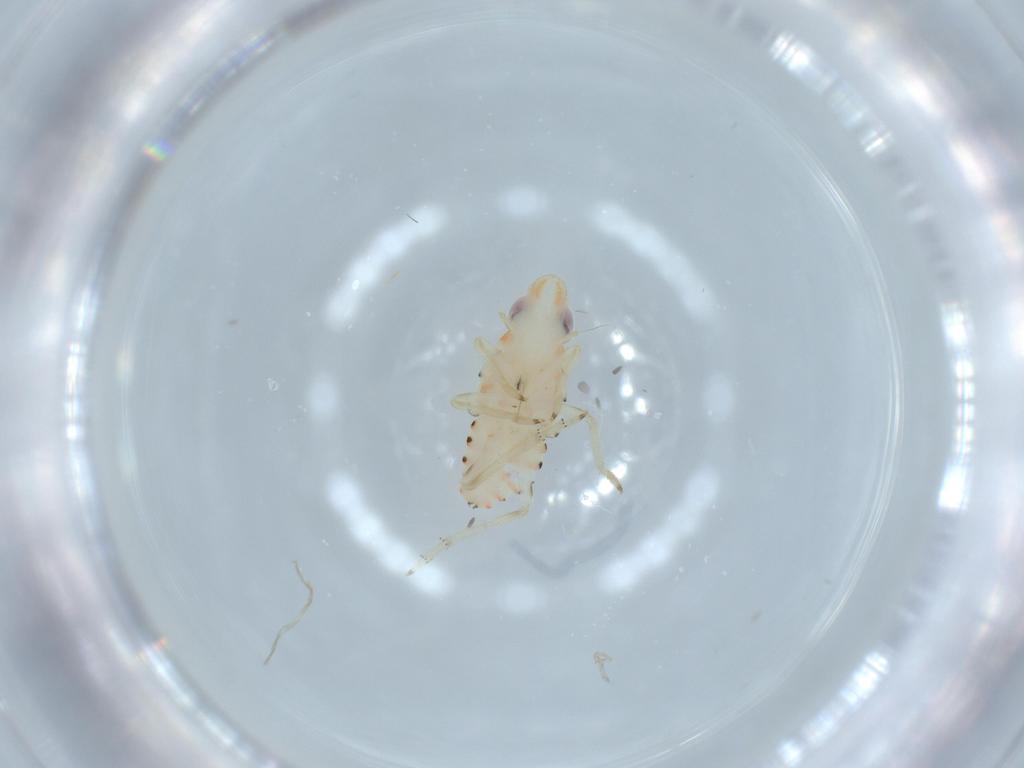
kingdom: Animalia
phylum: Arthropoda
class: Insecta
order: Hemiptera
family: Tropiduchidae
